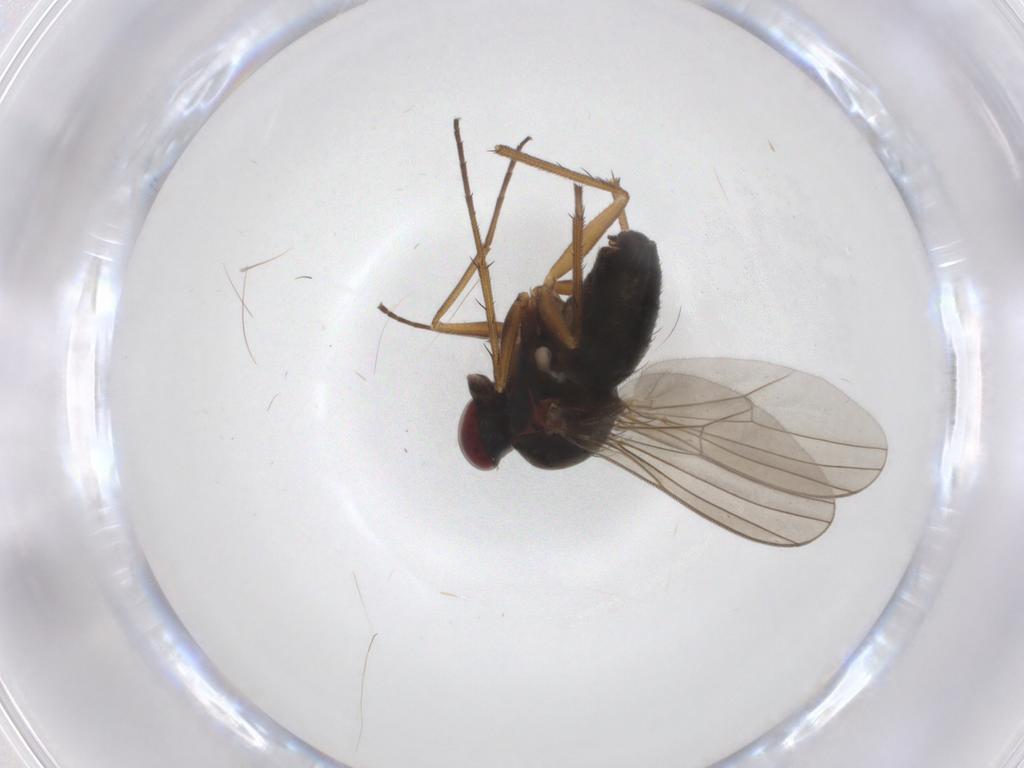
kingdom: Animalia
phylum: Arthropoda
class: Insecta
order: Diptera
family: Dolichopodidae
